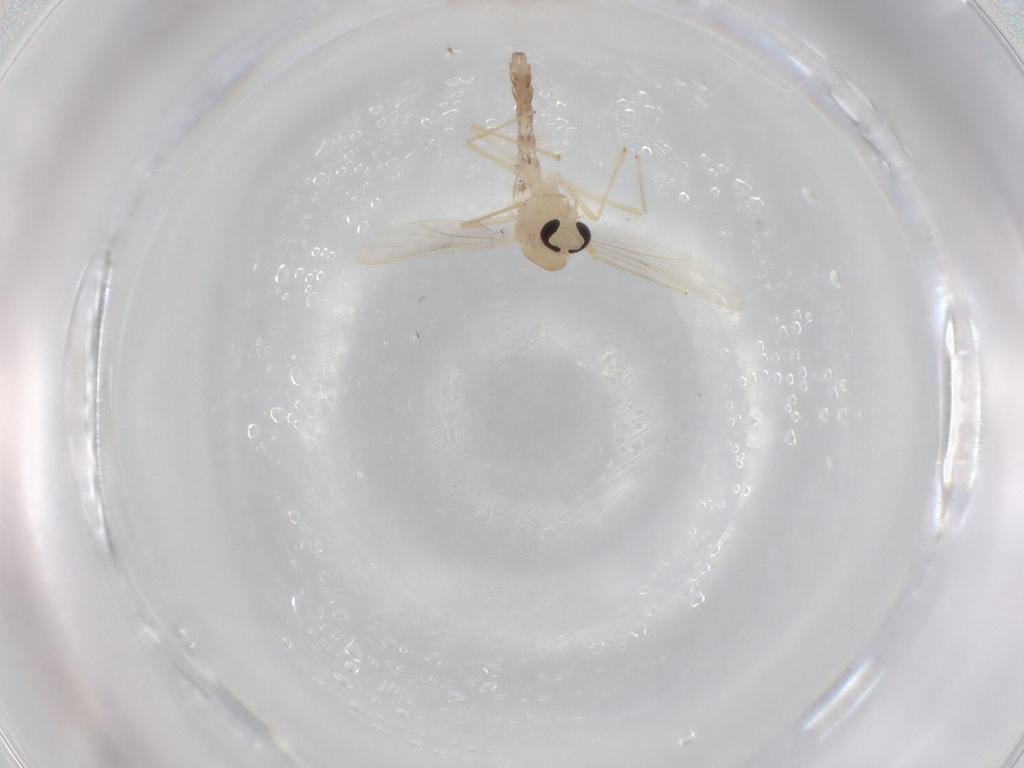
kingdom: Animalia
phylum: Arthropoda
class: Insecta
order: Diptera
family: Chironomidae
